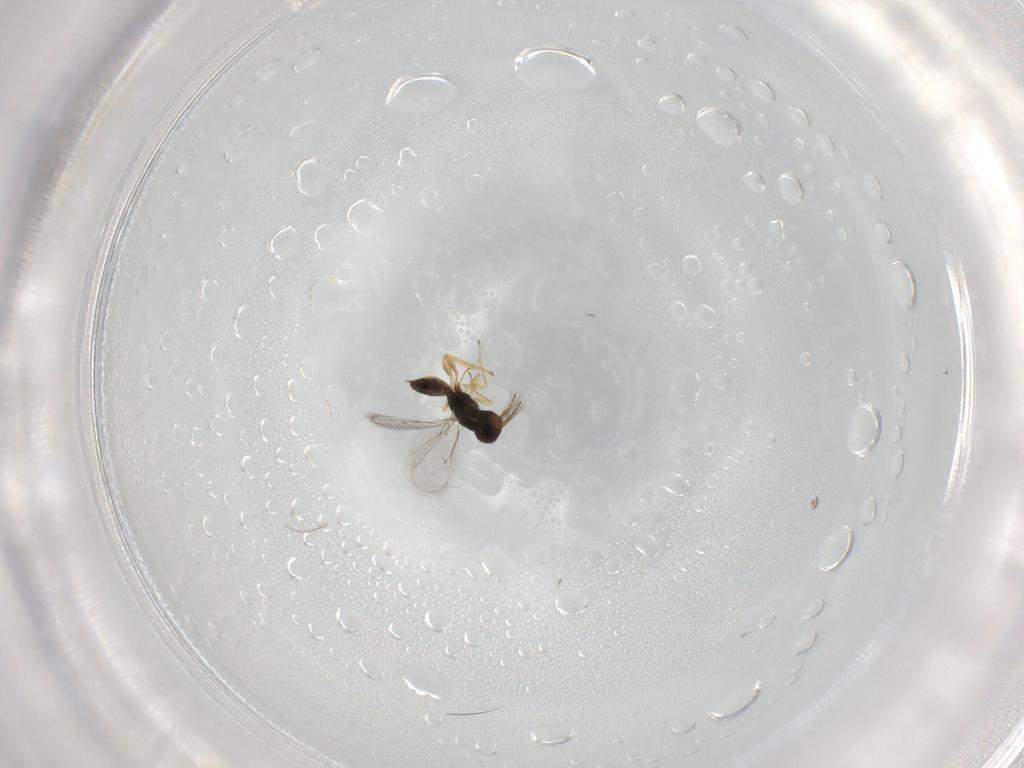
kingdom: Animalia
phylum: Arthropoda
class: Insecta
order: Hymenoptera
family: Eulophidae
